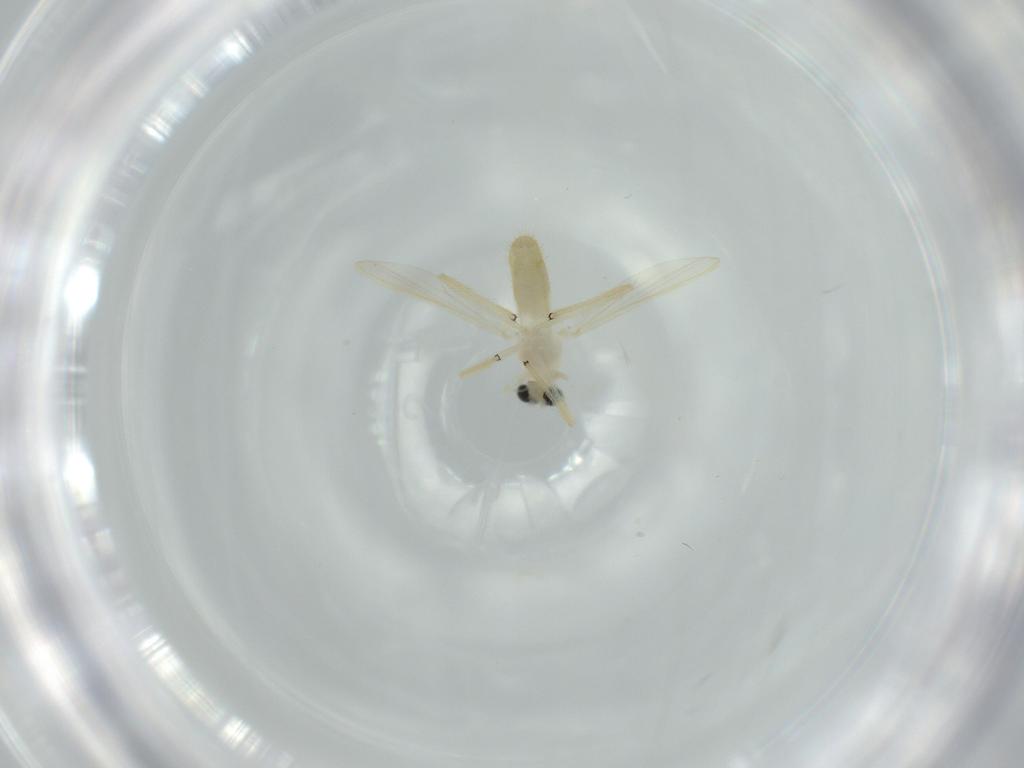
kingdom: Animalia
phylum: Arthropoda
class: Insecta
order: Diptera
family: Chironomidae
